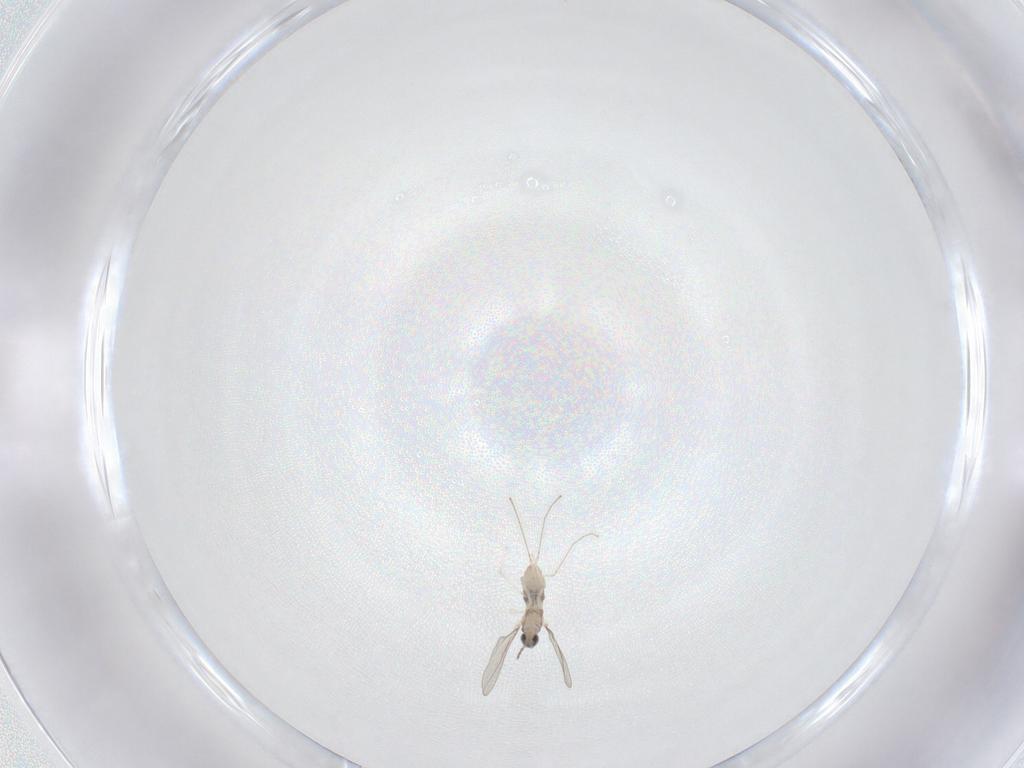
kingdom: Animalia
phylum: Arthropoda
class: Insecta
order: Diptera
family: Cecidomyiidae
